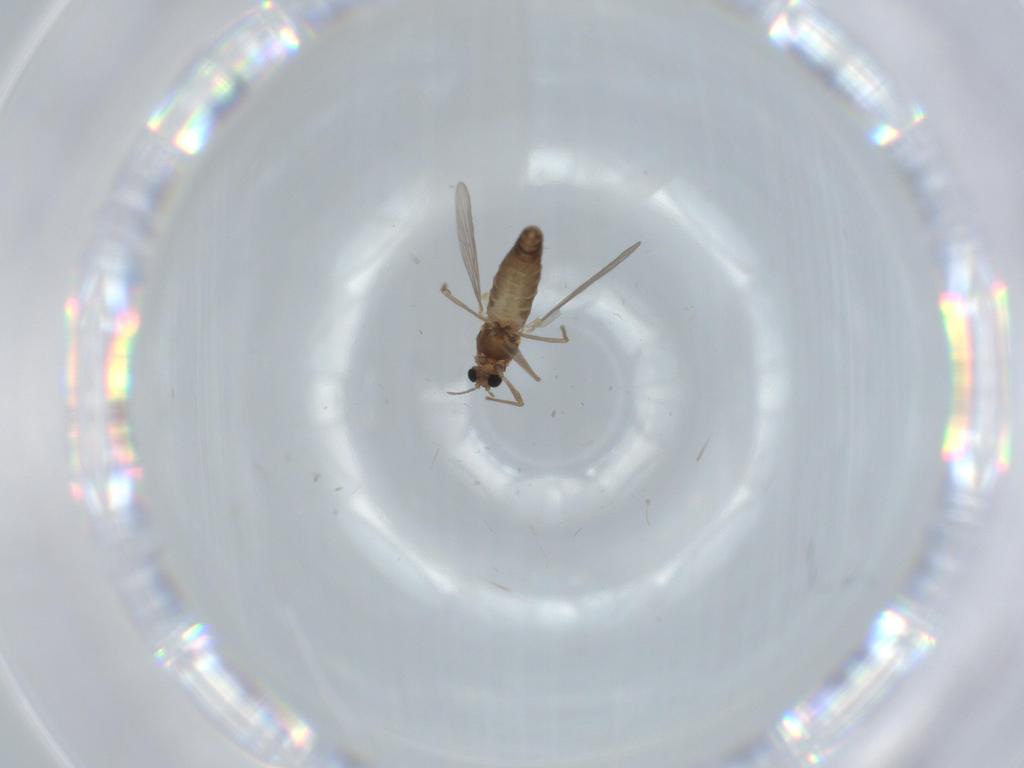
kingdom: Animalia
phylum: Arthropoda
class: Insecta
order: Diptera
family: Chironomidae
